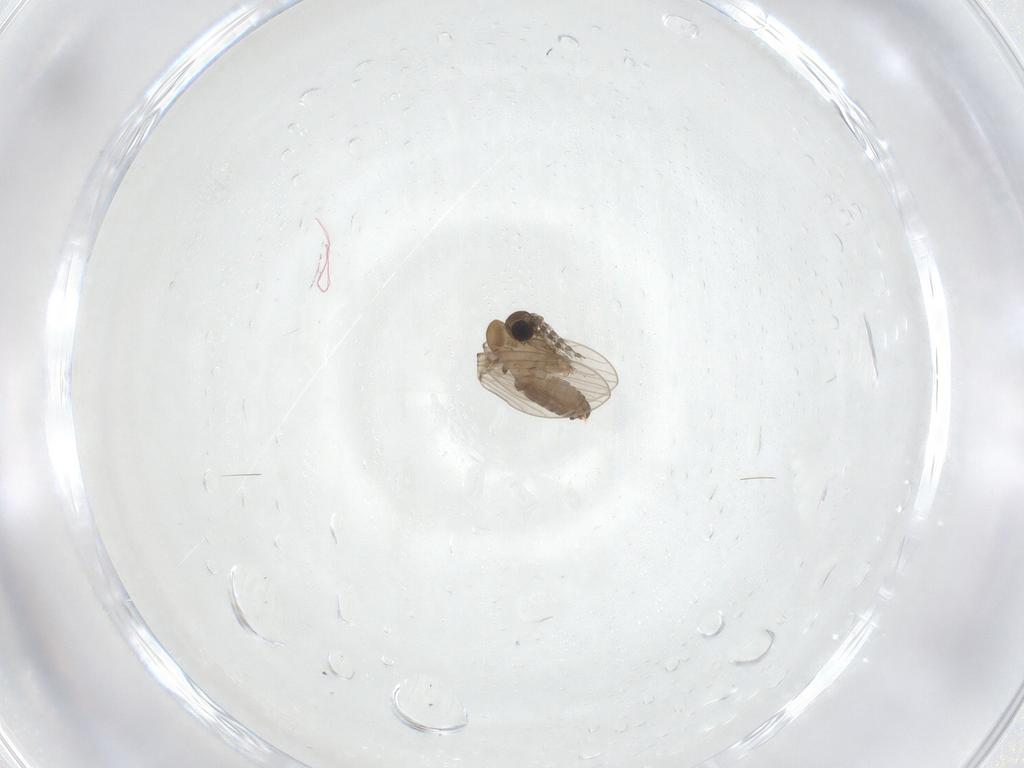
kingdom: Animalia
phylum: Arthropoda
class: Insecta
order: Diptera
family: Psychodidae
